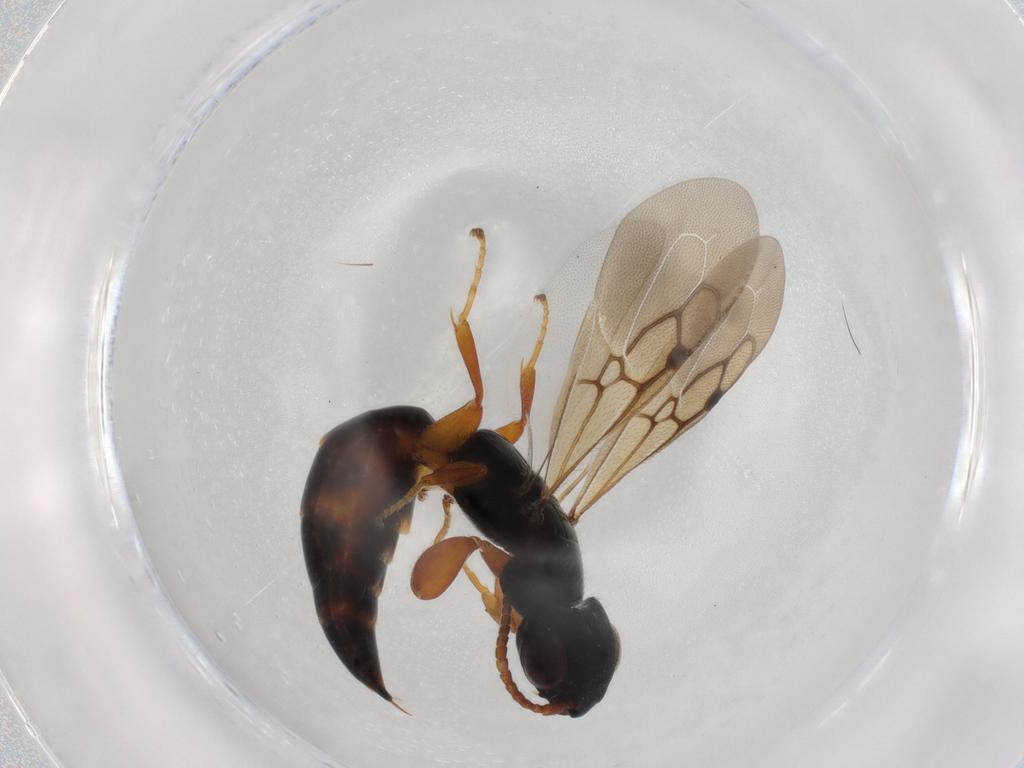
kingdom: Animalia
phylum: Arthropoda
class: Insecta
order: Hymenoptera
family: Bethylidae
